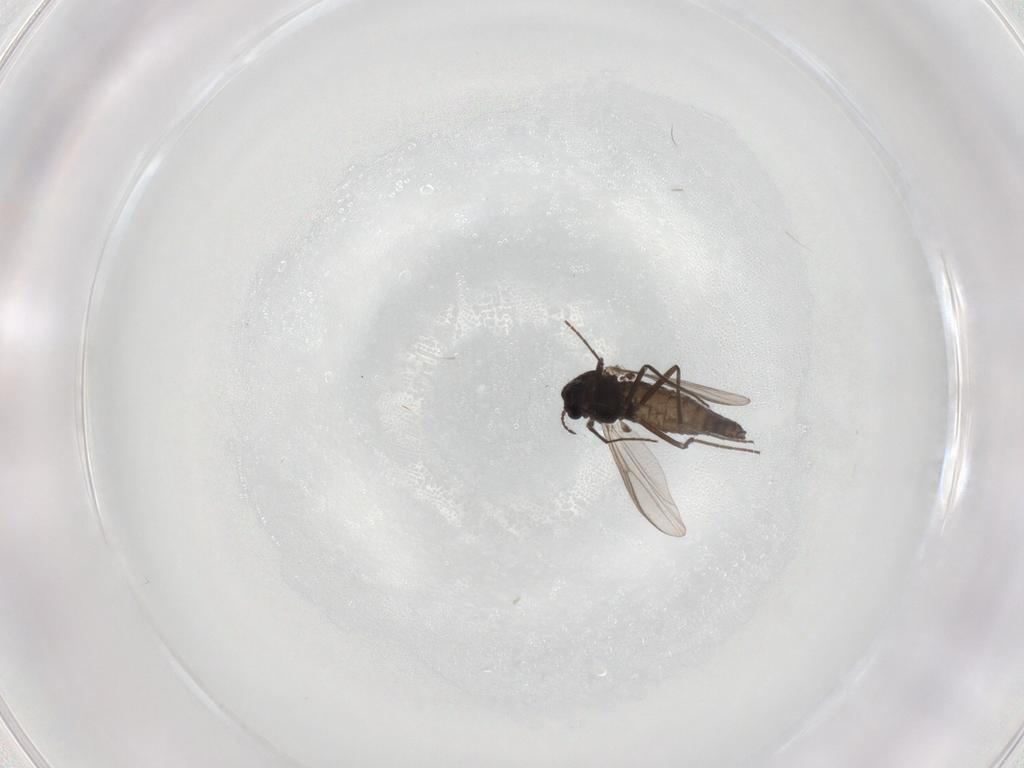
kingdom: Animalia
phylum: Arthropoda
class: Insecta
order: Diptera
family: Chironomidae
